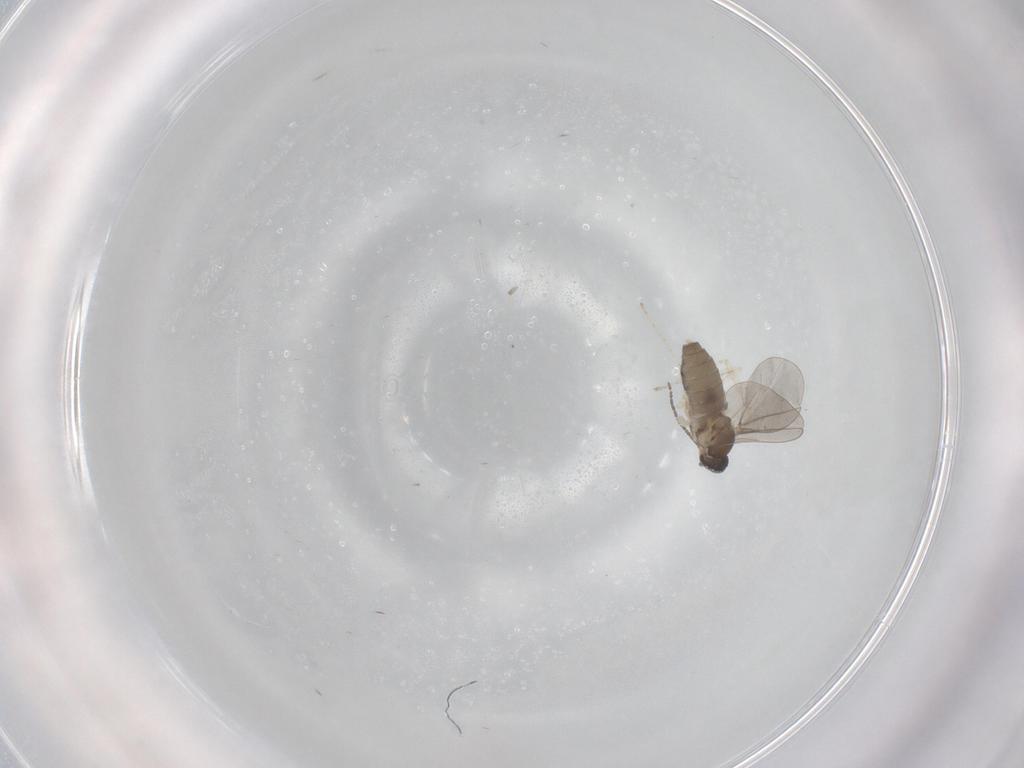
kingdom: Animalia
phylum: Arthropoda
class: Insecta
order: Diptera
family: Cecidomyiidae
